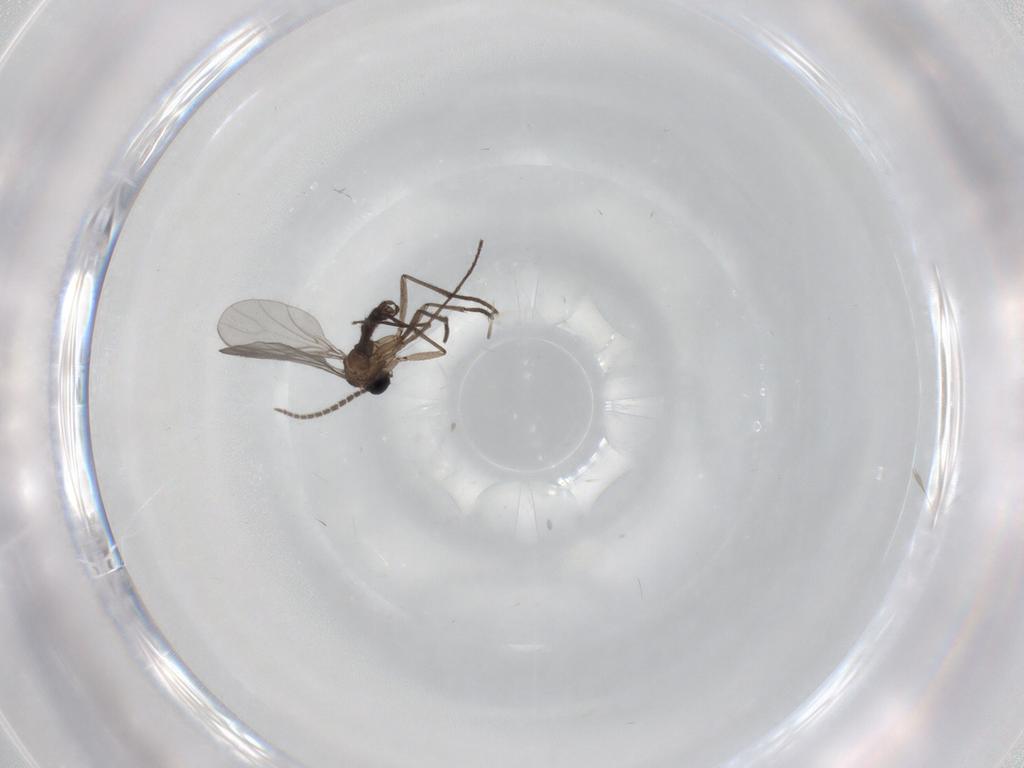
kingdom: Animalia
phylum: Arthropoda
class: Insecta
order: Diptera
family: Sciaridae
